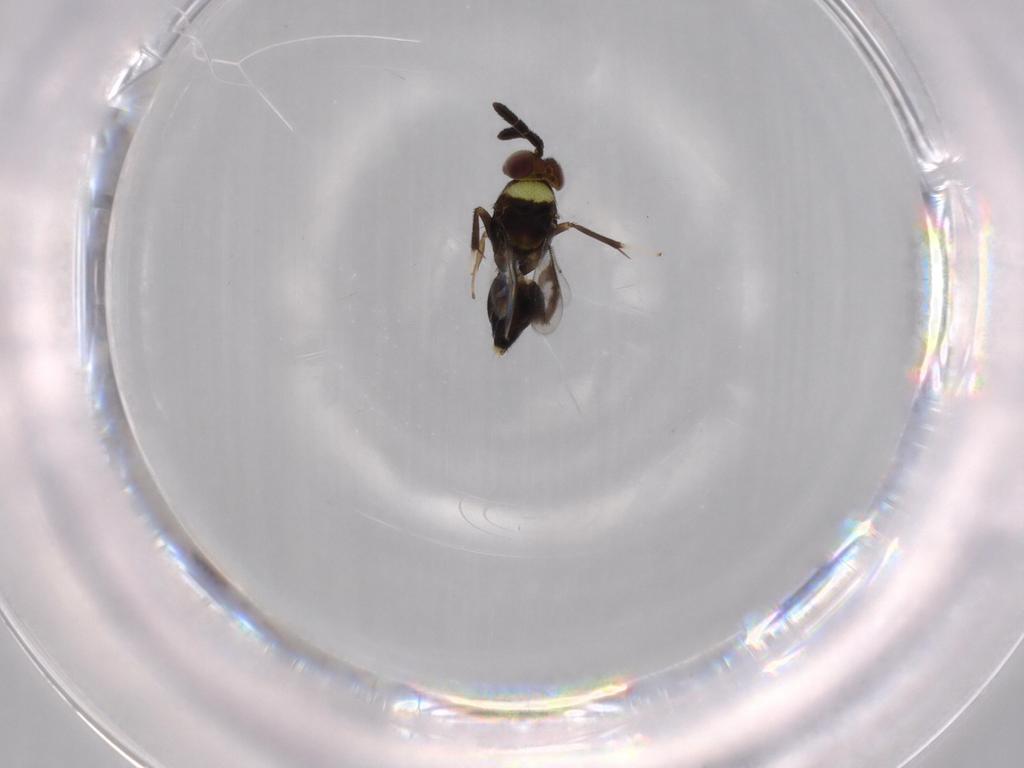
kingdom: Animalia
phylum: Arthropoda
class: Insecta
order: Hymenoptera
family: Aphelinidae
